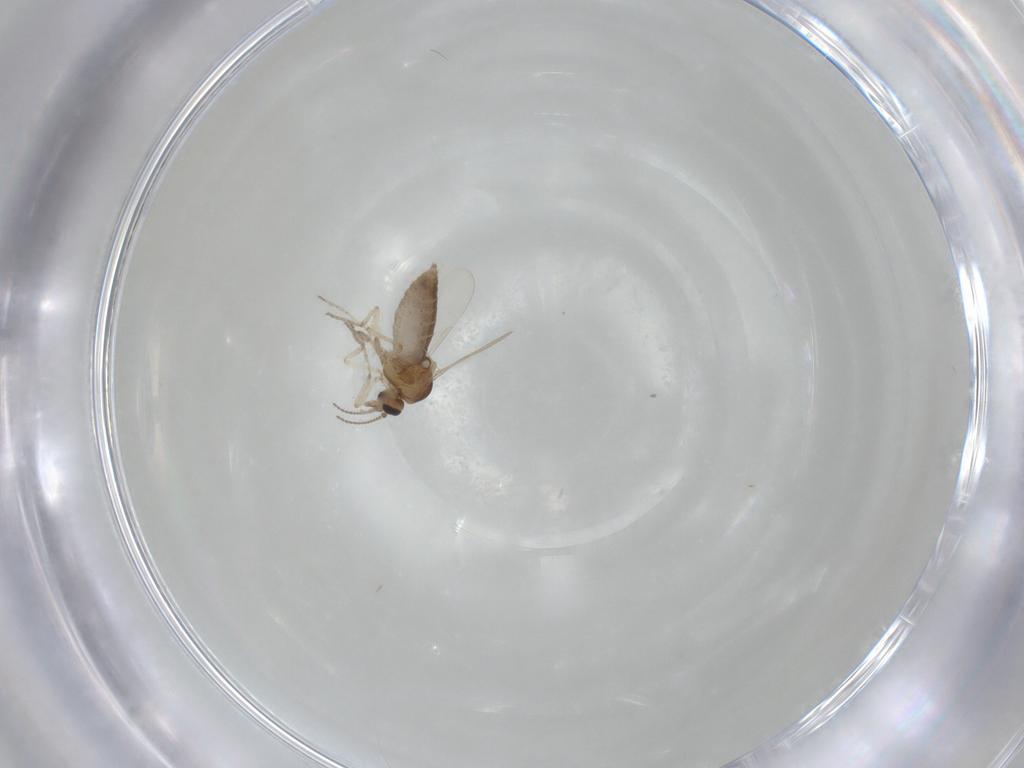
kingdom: Animalia
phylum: Arthropoda
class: Insecta
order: Diptera
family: Ceratopogonidae
